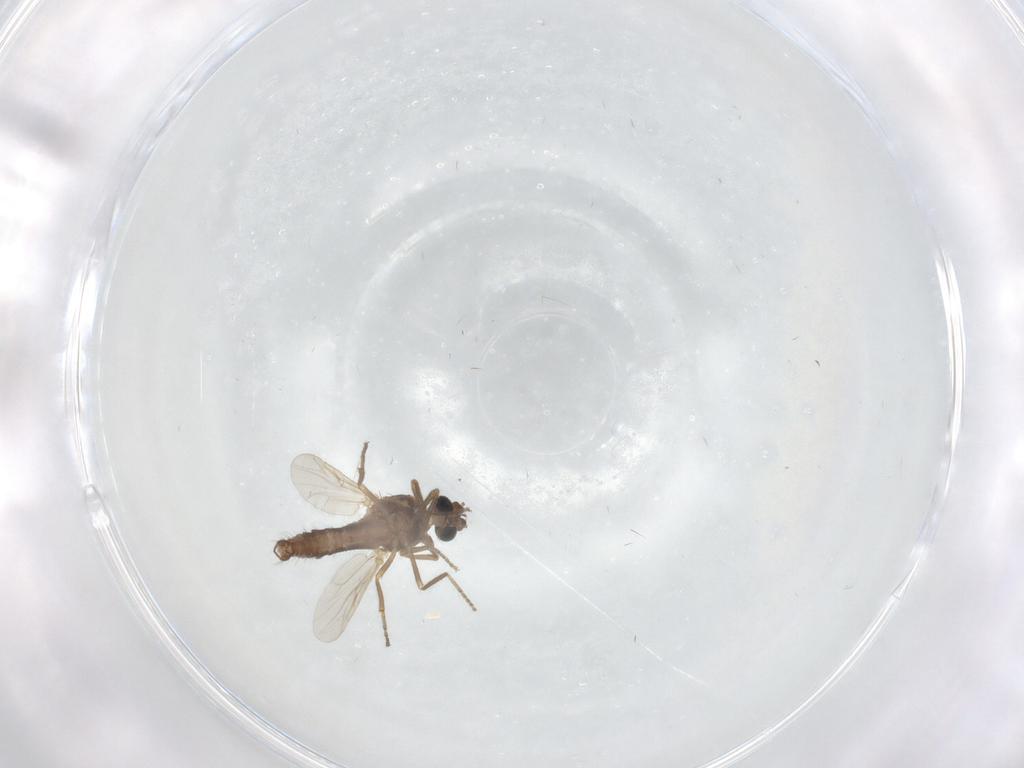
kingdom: Animalia
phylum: Arthropoda
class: Insecta
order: Diptera
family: Ceratopogonidae
